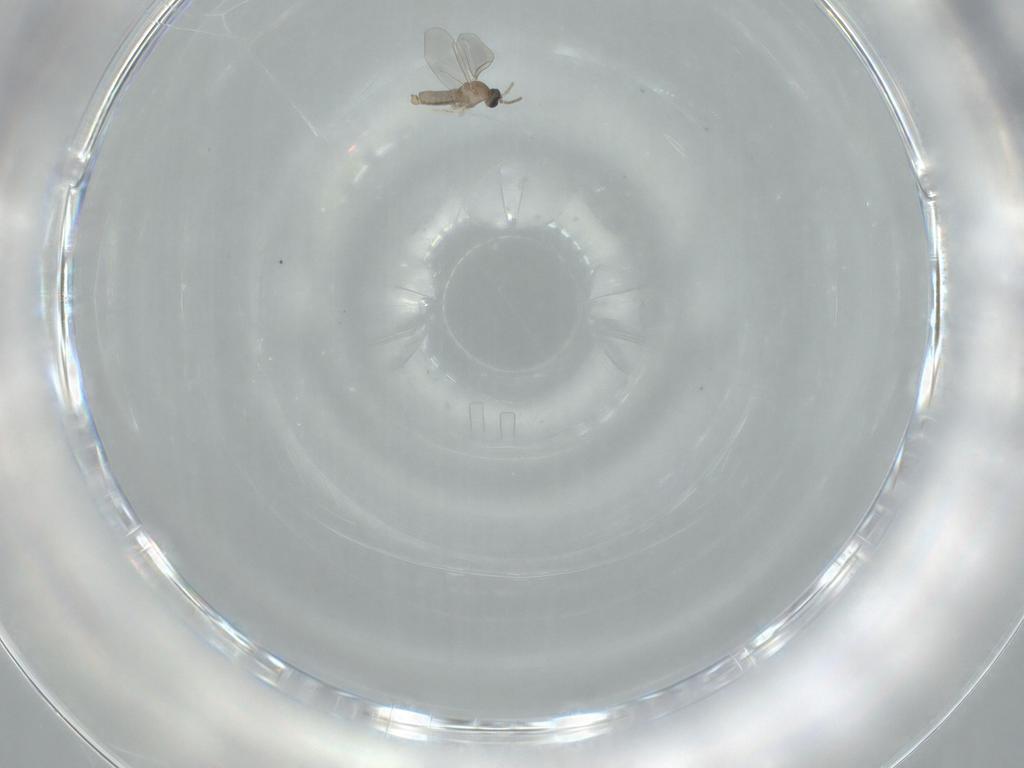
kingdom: Animalia
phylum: Arthropoda
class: Insecta
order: Diptera
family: Cecidomyiidae
